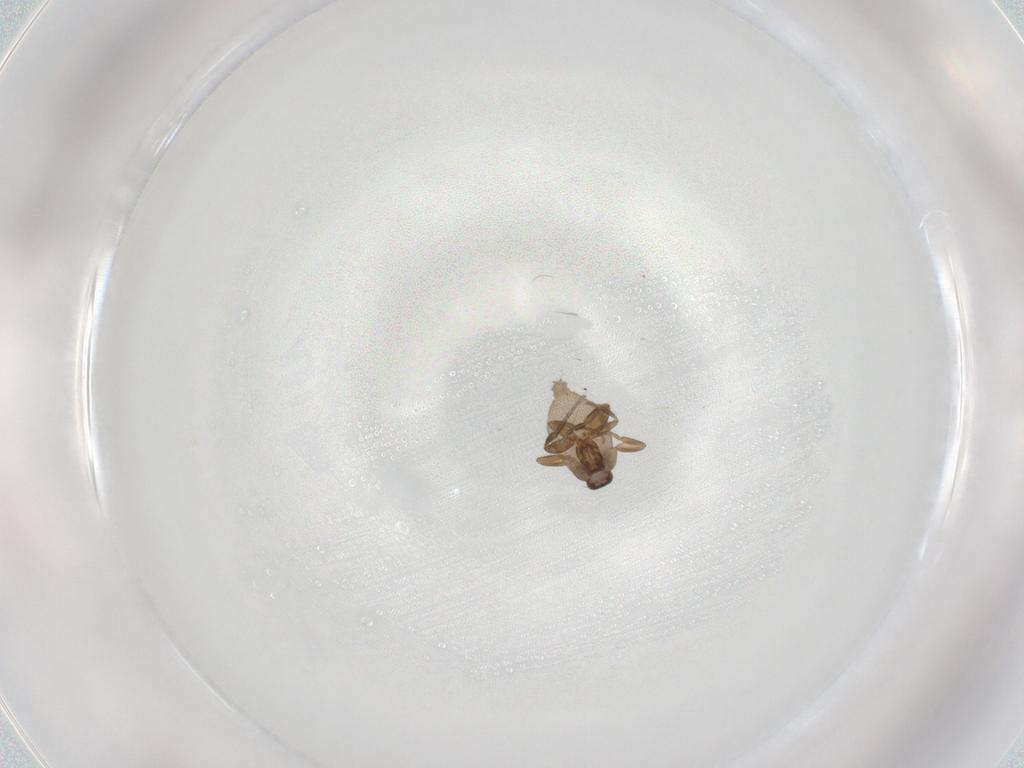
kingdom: Animalia
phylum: Arthropoda
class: Insecta
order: Diptera
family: Phoridae
